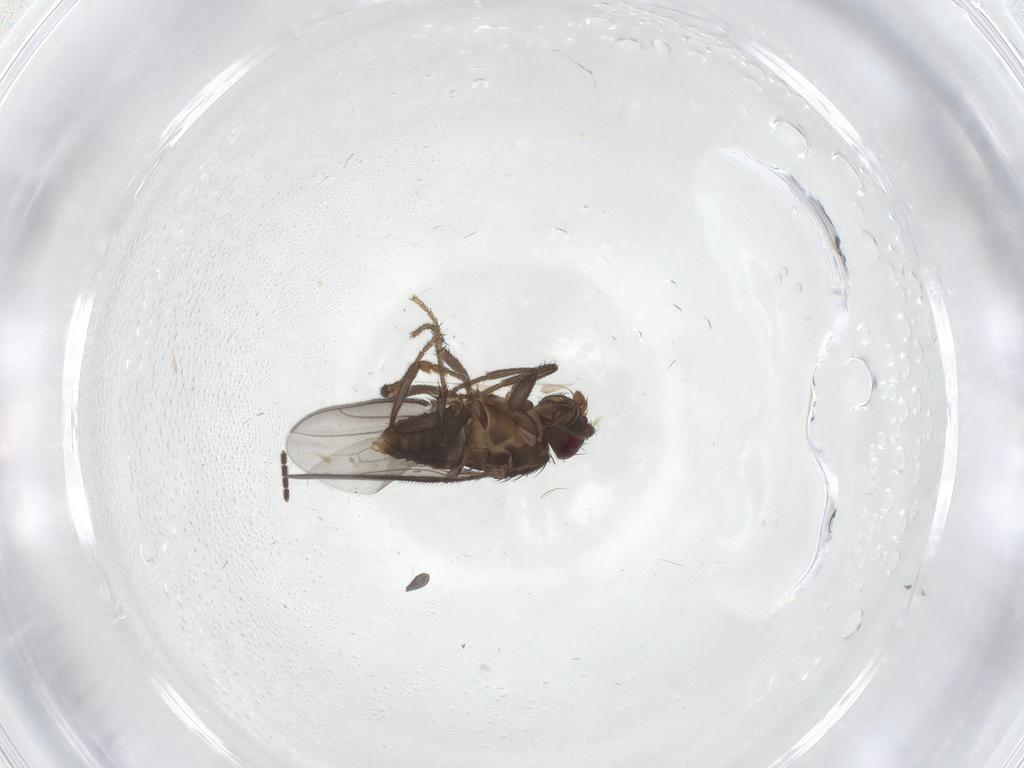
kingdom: Animalia
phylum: Arthropoda
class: Insecta
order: Diptera
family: Sphaeroceridae
